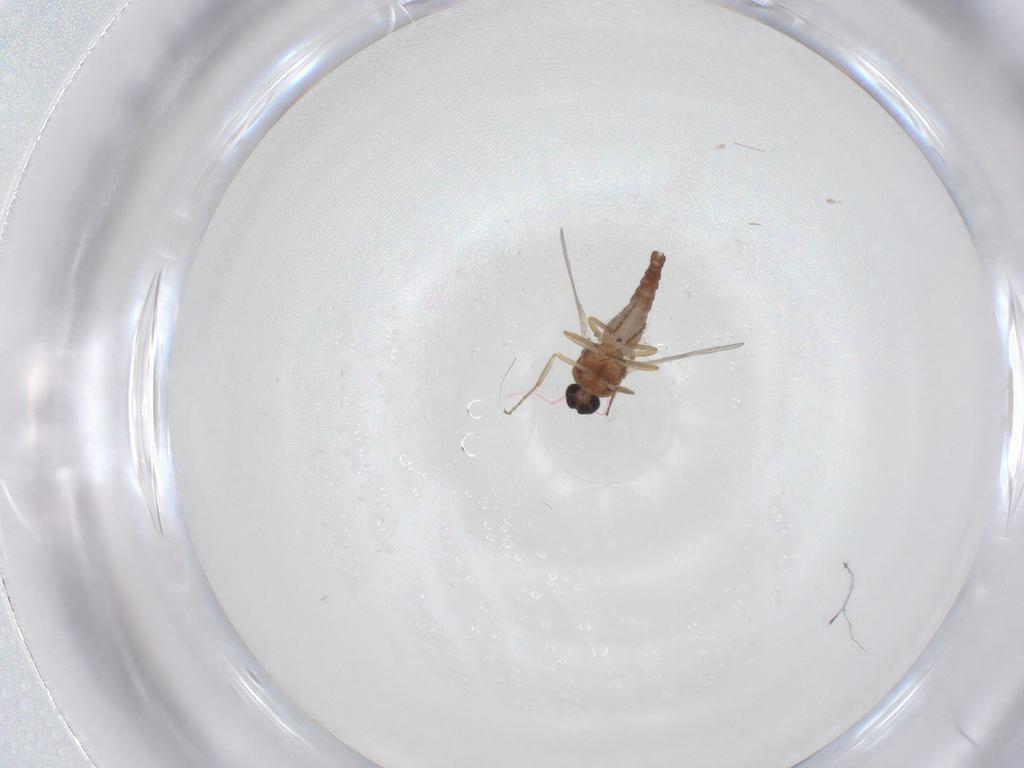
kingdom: Animalia
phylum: Arthropoda
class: Insecta
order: Diptera
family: Ceratopogonidae
